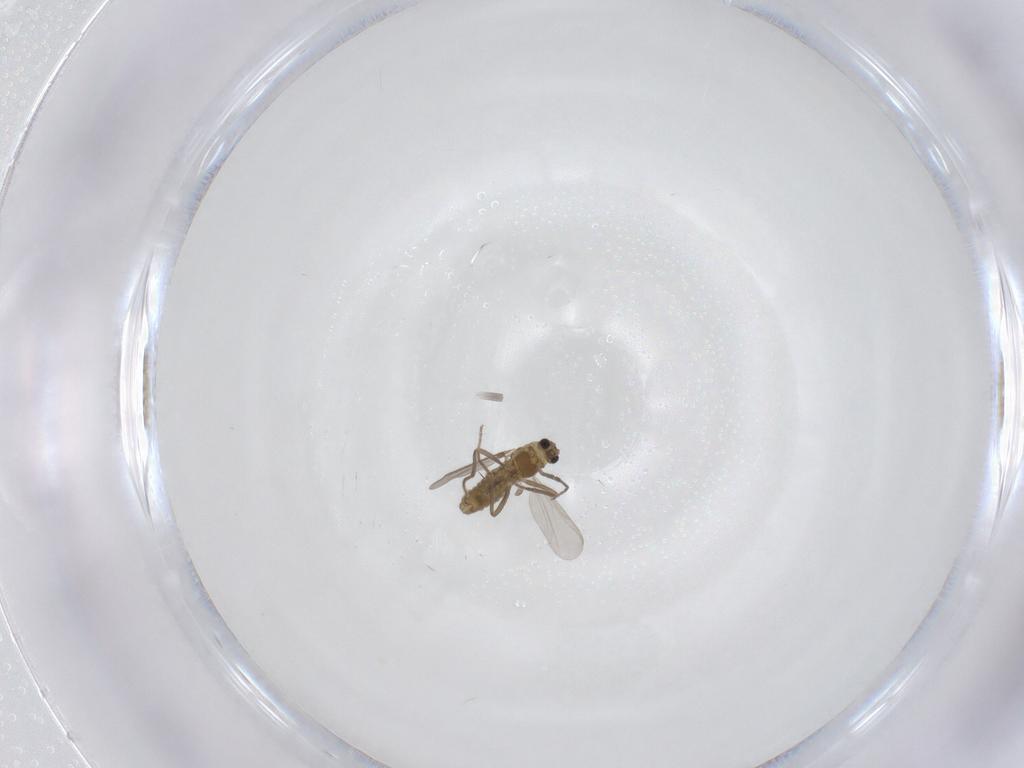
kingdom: Animalia
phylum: Arthropoda
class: Insecta
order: Diptera
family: Chironomidae
